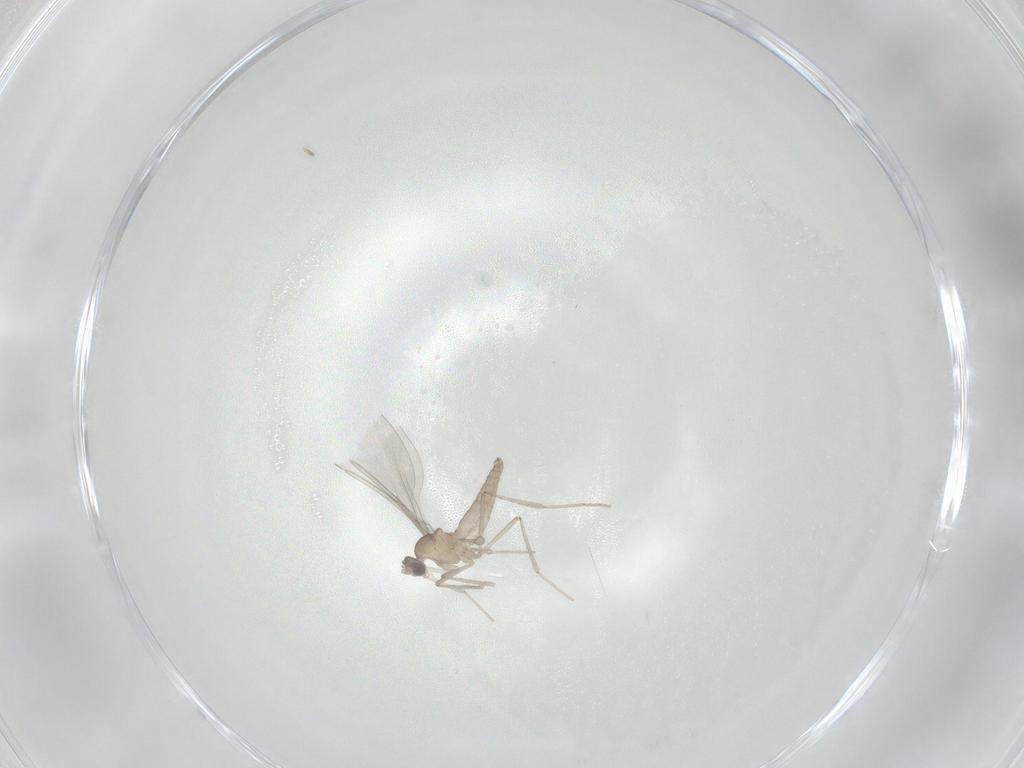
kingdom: Animalia
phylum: Arthropoda
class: Insecta
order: Diptera
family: Cecidomyiidae
